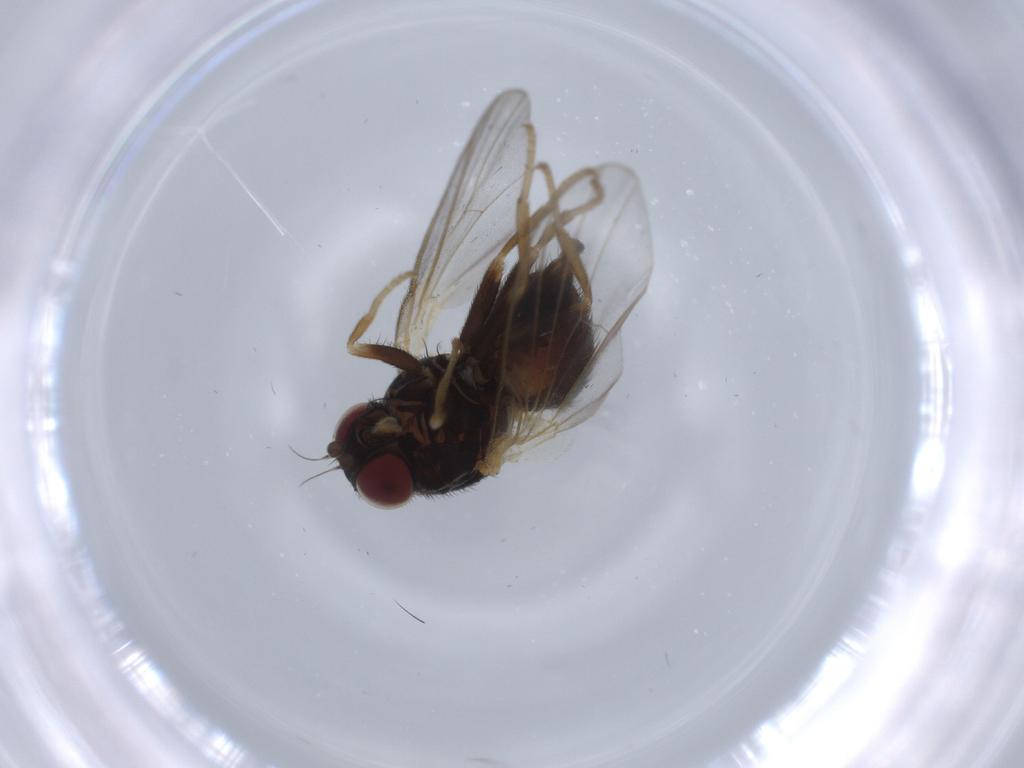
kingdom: Animalia
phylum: Arthropoda
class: Insecta
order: Diptera
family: Ceratopogonidae
